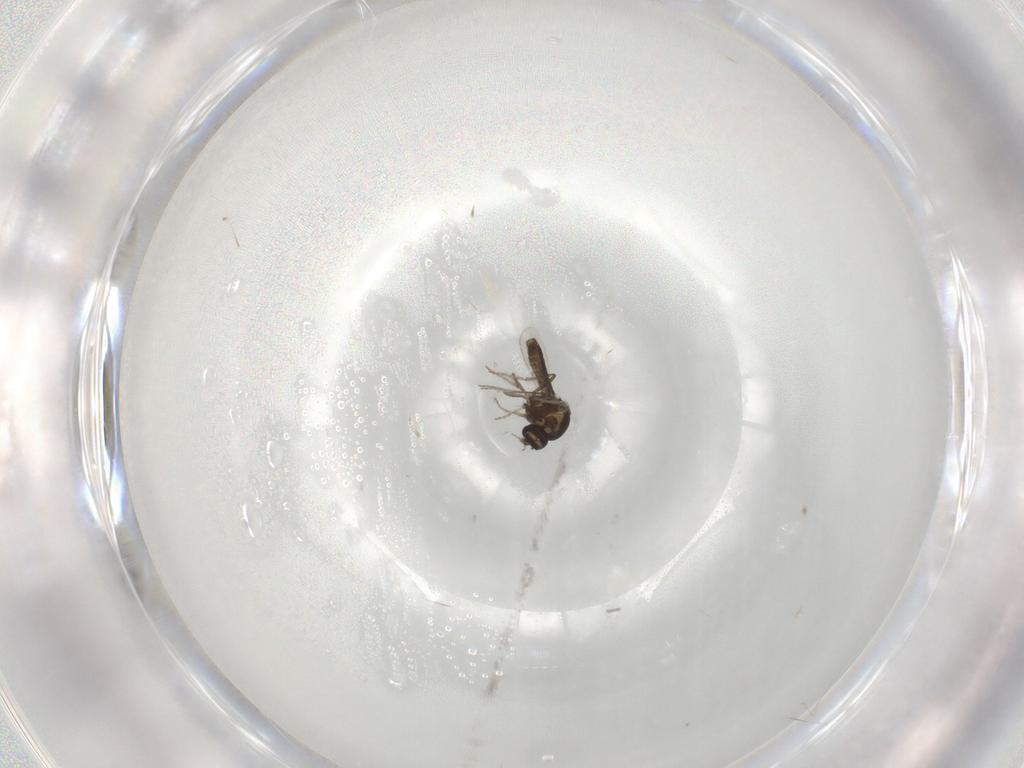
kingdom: Animalia
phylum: Arthropoda
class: Insecta
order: Diptera
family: Ceratopogonidae
